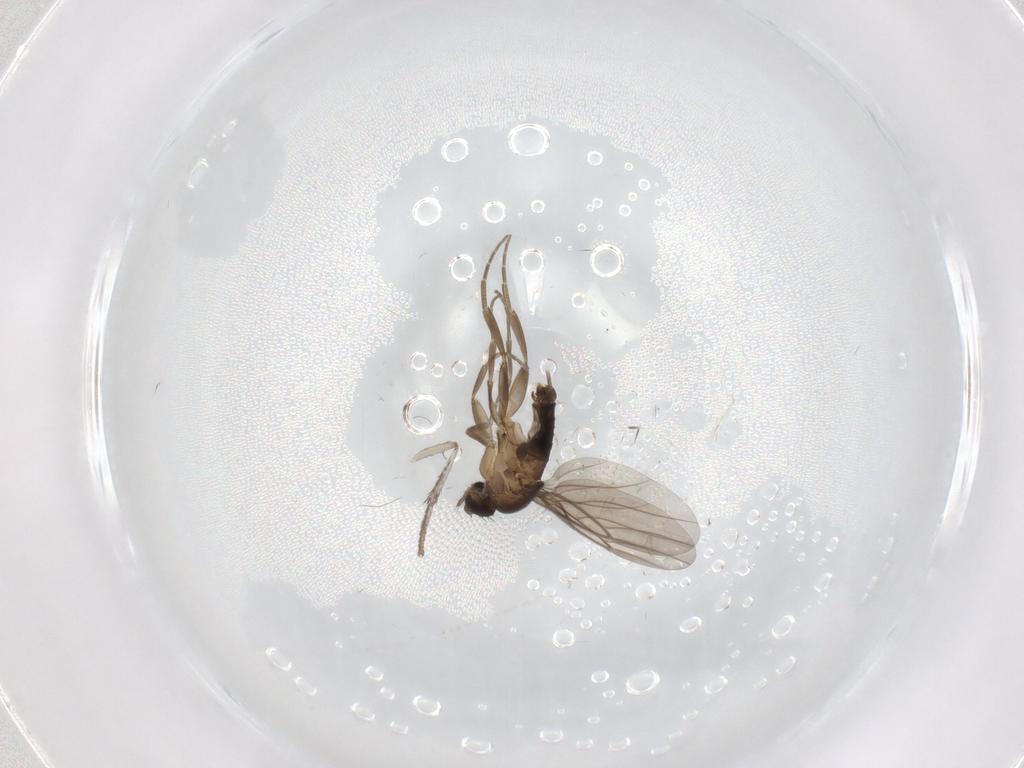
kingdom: Animalia
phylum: Arthropoda
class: Insecta
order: Diptera
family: Phoridae
